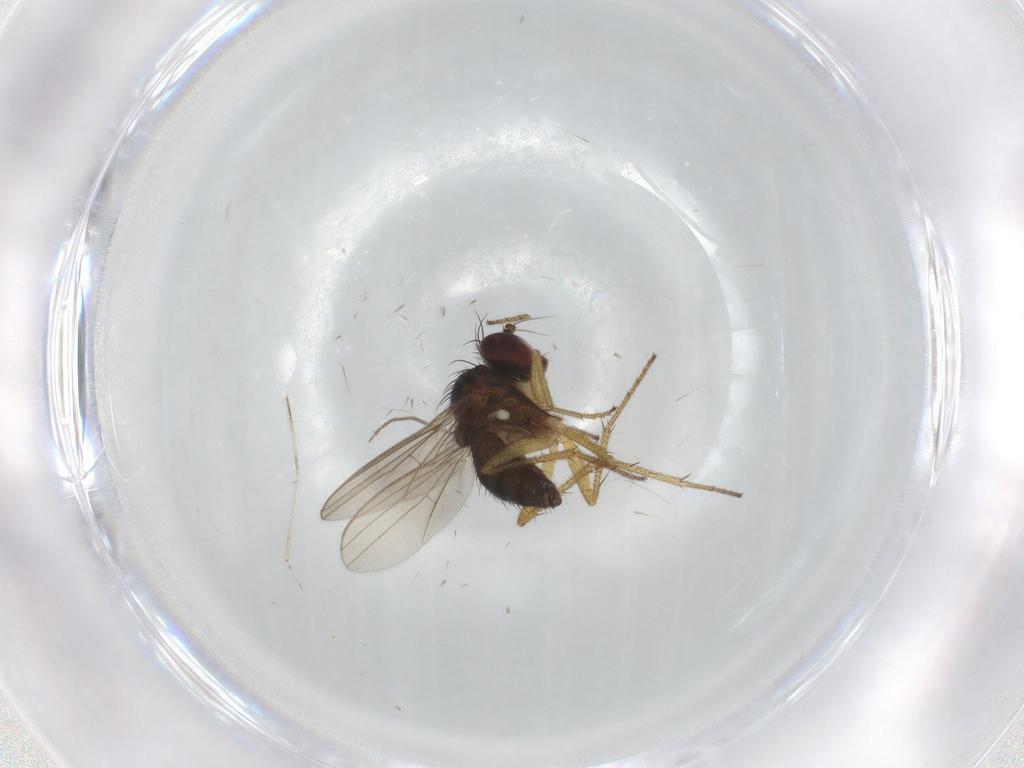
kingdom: Animalia
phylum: Arthropoda
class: Insecta
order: Diptera
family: Chironomidae
